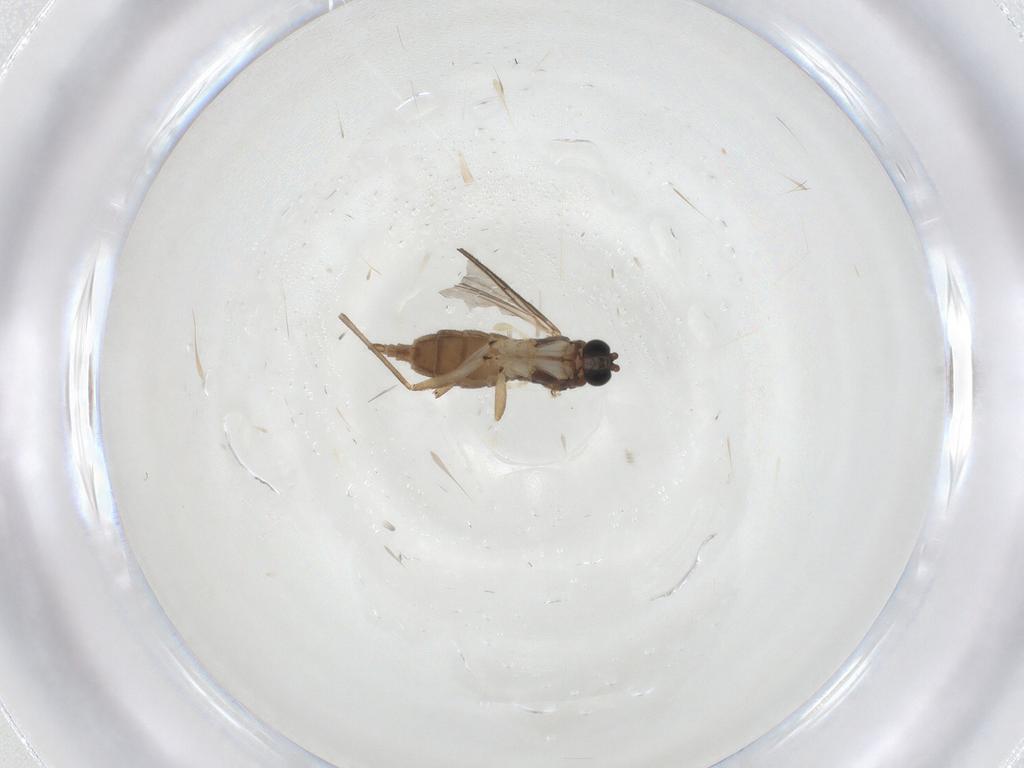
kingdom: Animalia
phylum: Arthropoda
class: Insecta
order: Diptera
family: Sciaridae
